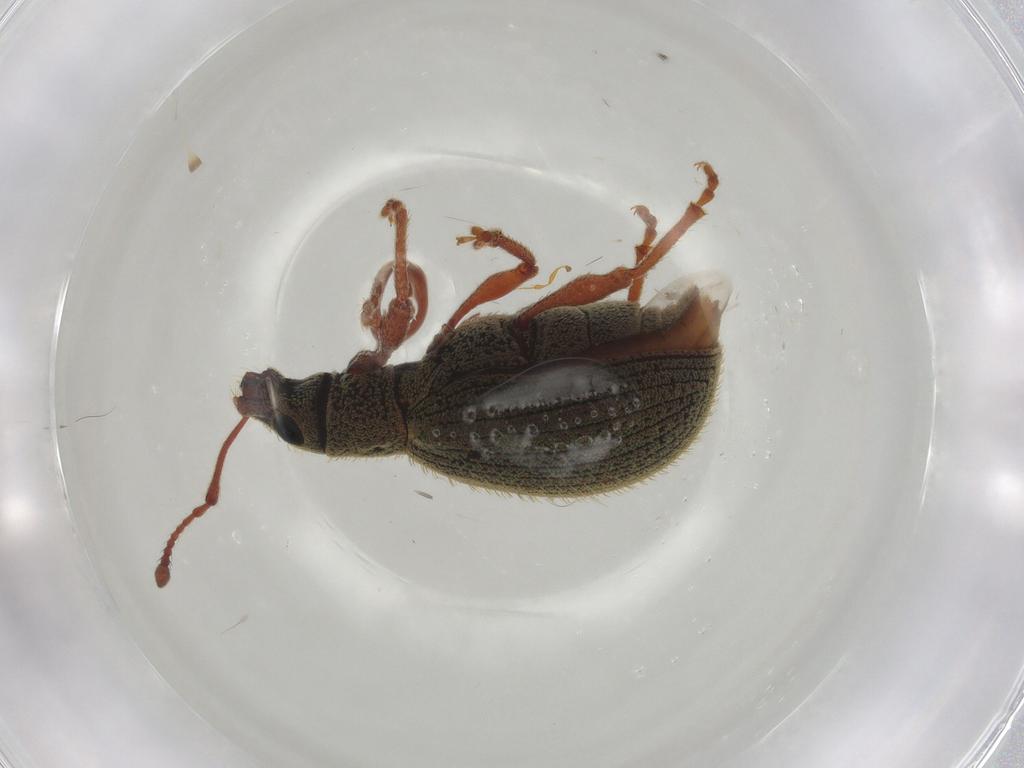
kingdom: Animalia
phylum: Arthropoda
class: Insecta
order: Coleoptera
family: Curculionidae
